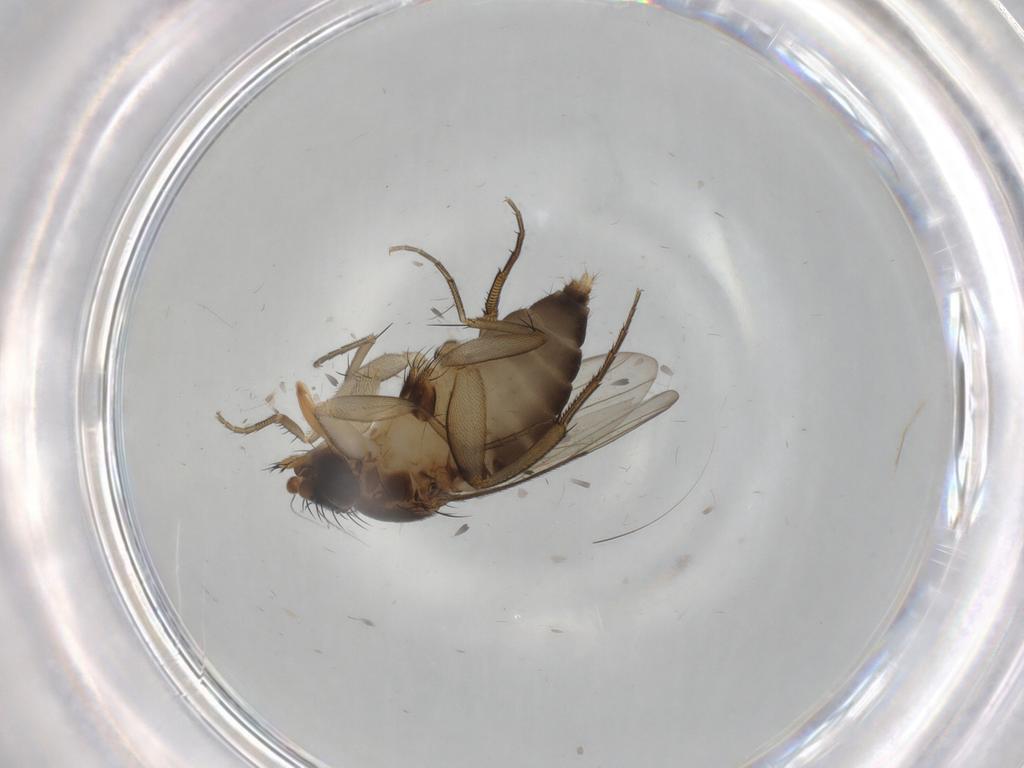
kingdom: Animalia
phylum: Arthropoda
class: Insecta
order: Diptera
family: Phoridae
